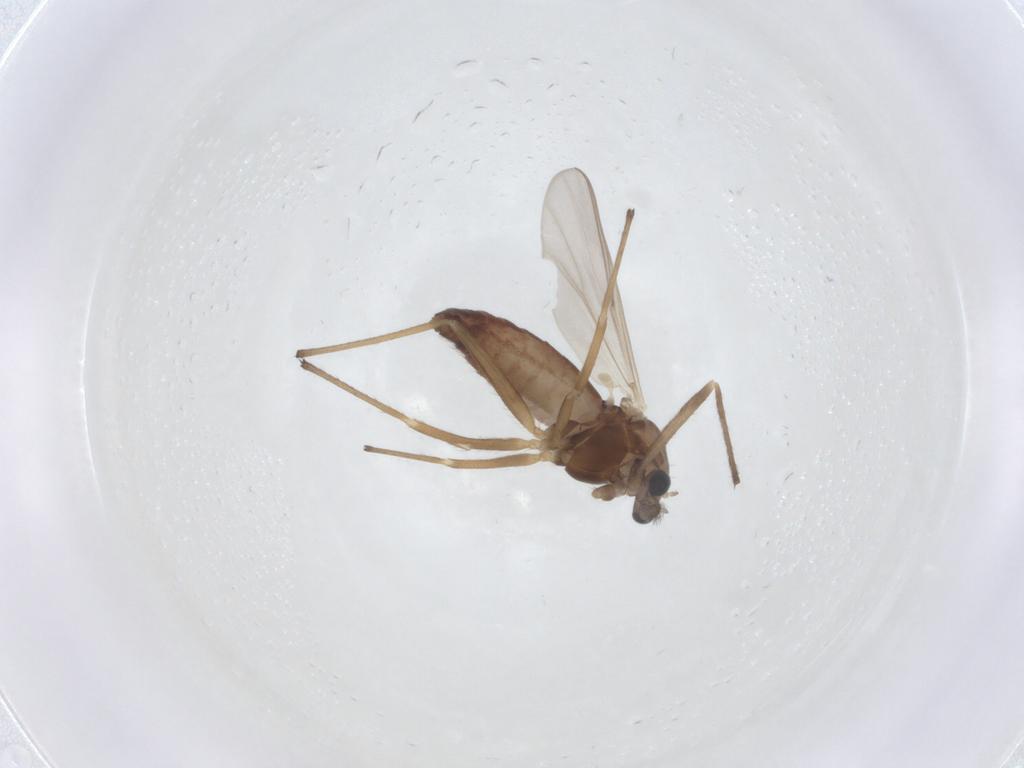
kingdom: Animalia
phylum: Arthropoda
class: Insecta
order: Diptera
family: Chironomidae
